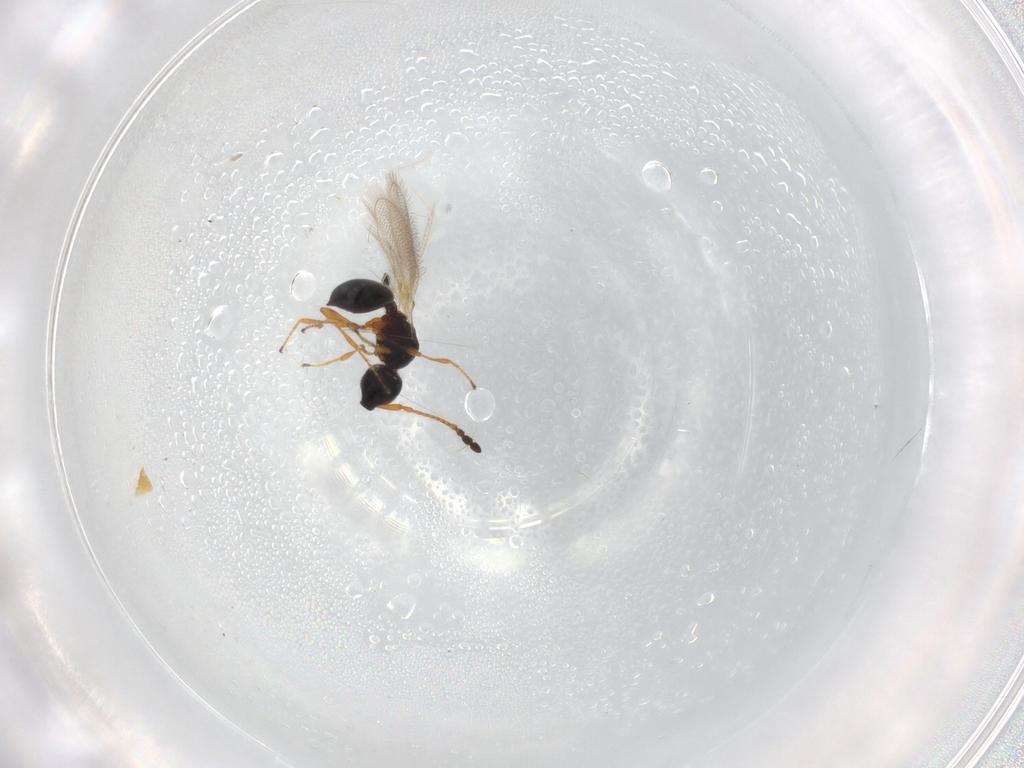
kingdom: Animalia
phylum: Arthropoda
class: Insecta
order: Hymenoptera
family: Diapriidae
